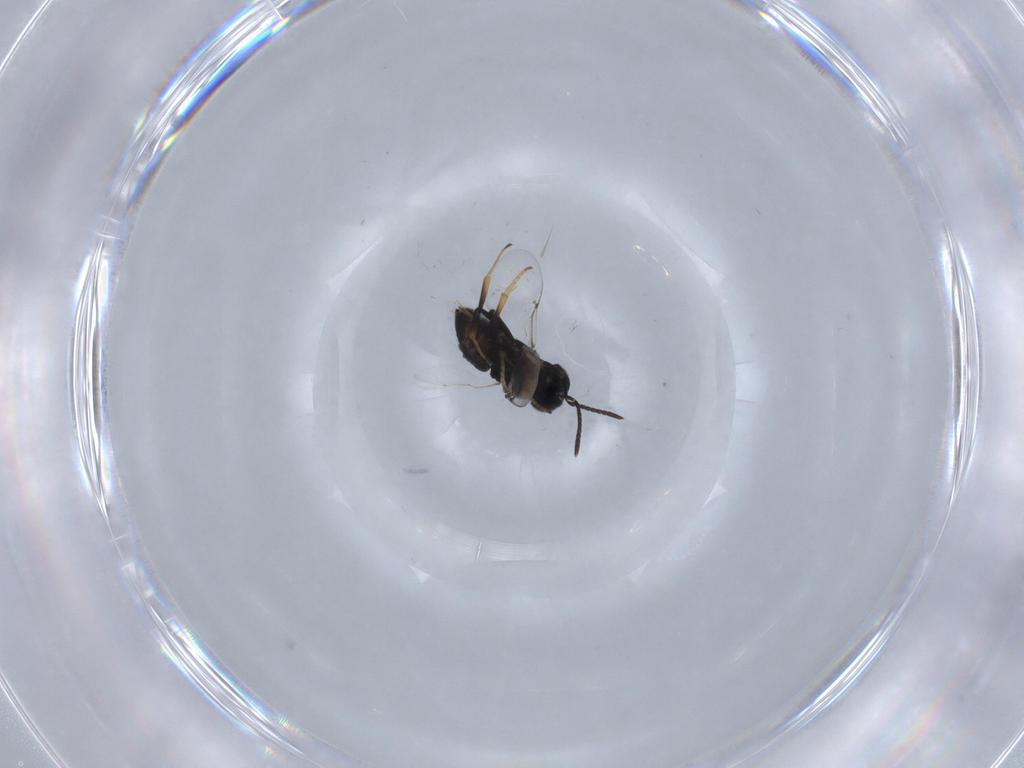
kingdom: Animalia
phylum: Arthropoda
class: Insecta
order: Hymenoptera
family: Encyrtidae
